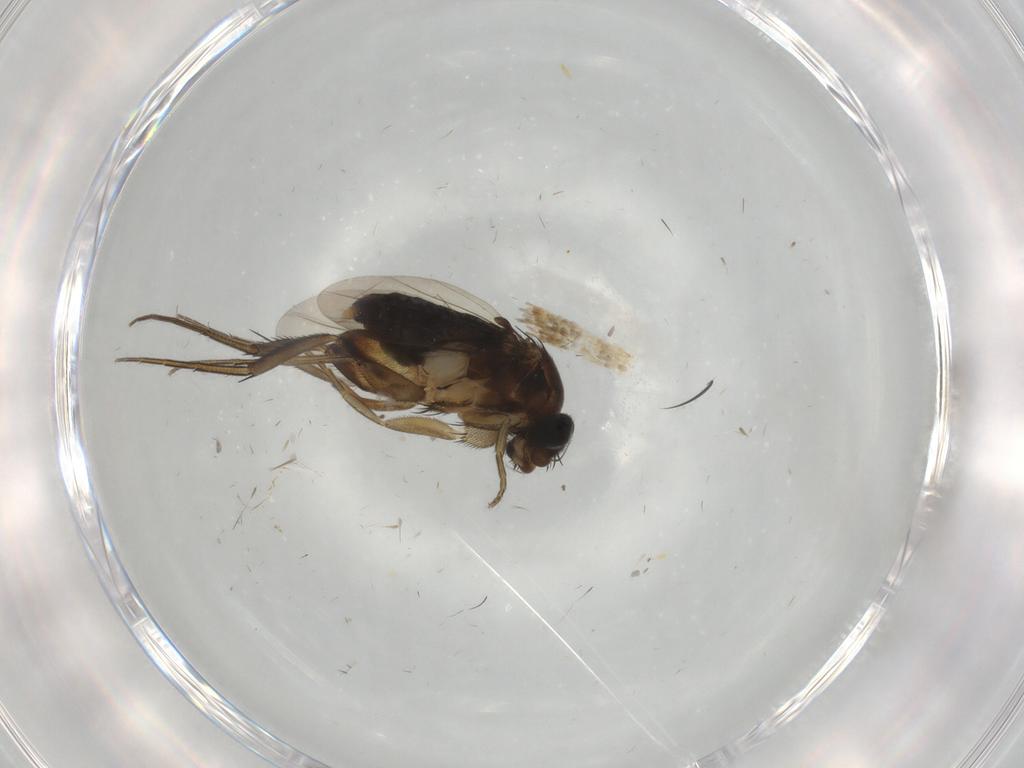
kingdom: Animalia
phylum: Arthropoda
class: Insecta
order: Diptera
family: Phoridae
